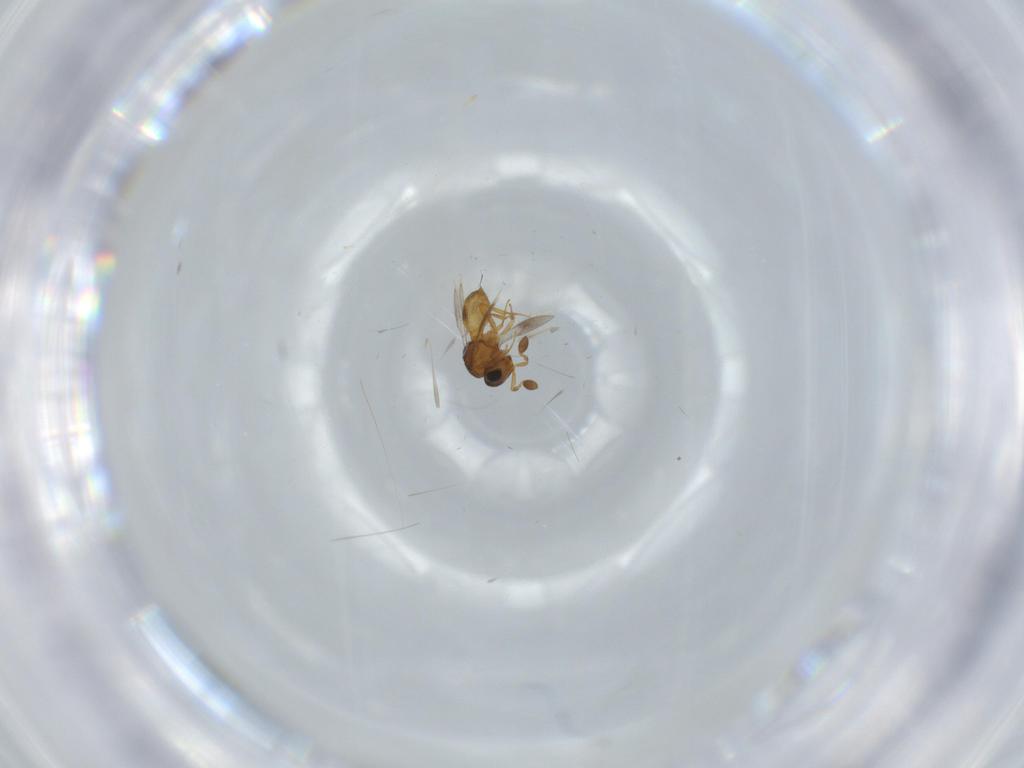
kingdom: Animalia
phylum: Arthropoda
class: Insecta
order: Hymenoptera
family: Scelionidae
